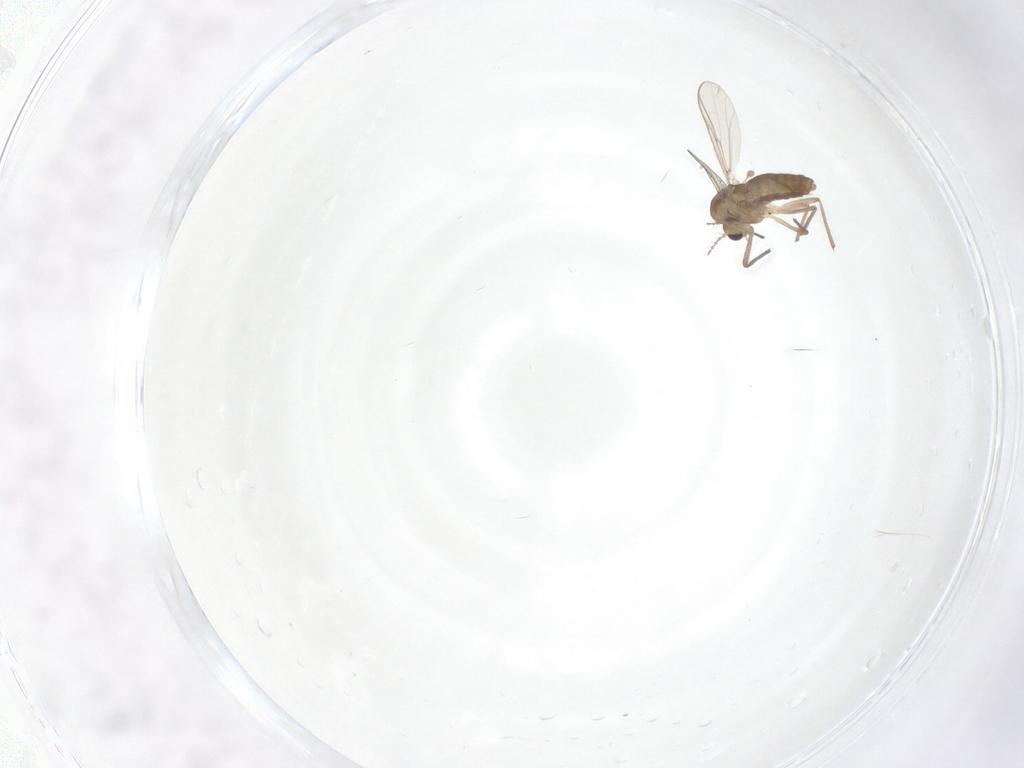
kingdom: Animalia
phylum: Arthropoda
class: Insecta
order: Diptera
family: Chironomidae
